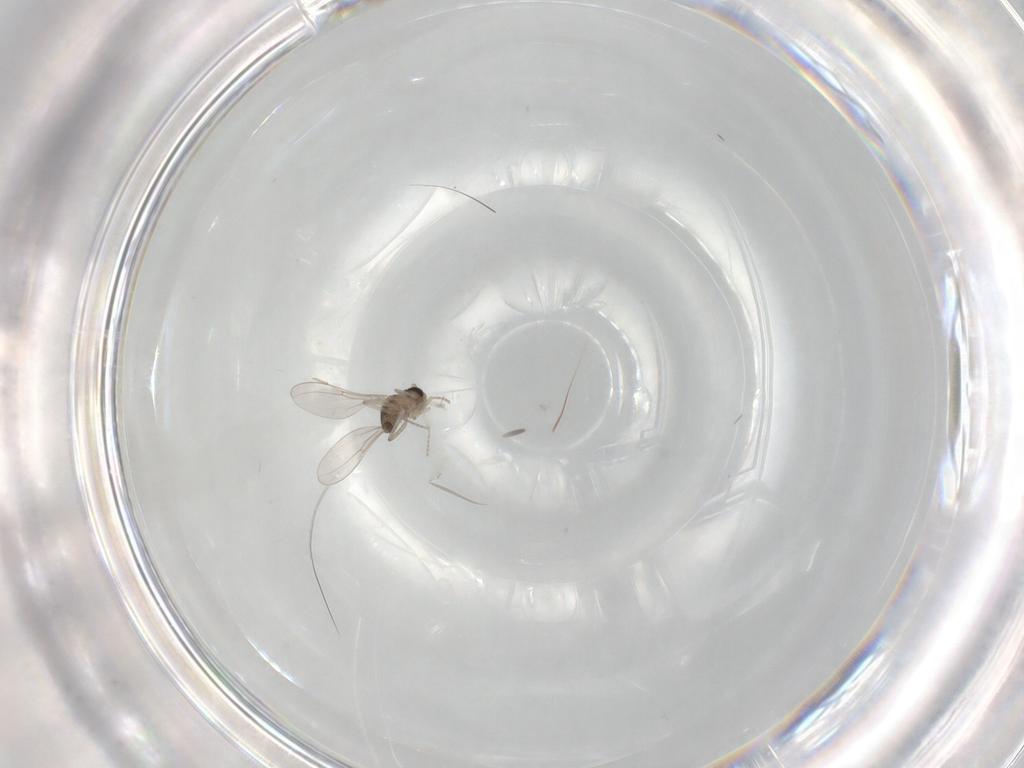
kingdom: Animalia
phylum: Arthropoda
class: Insecta
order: Diptera
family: Cecidomyiidae
